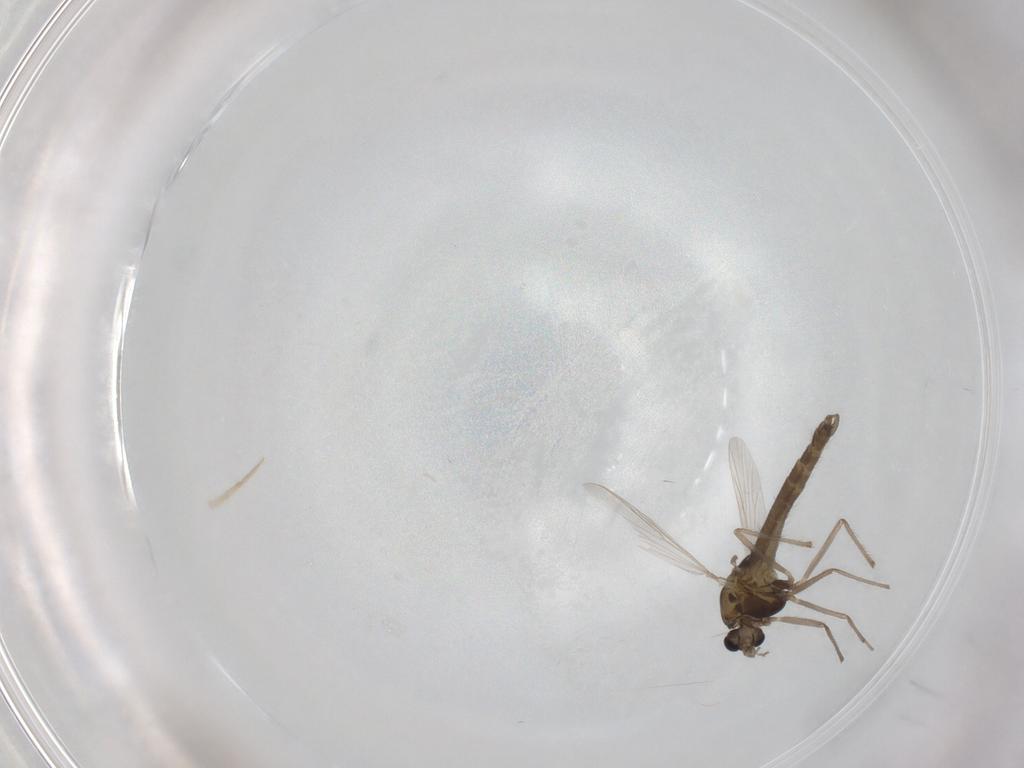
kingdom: Animalia
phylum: Arthropoda
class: Insecta
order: Diptera
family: Chironomidae
